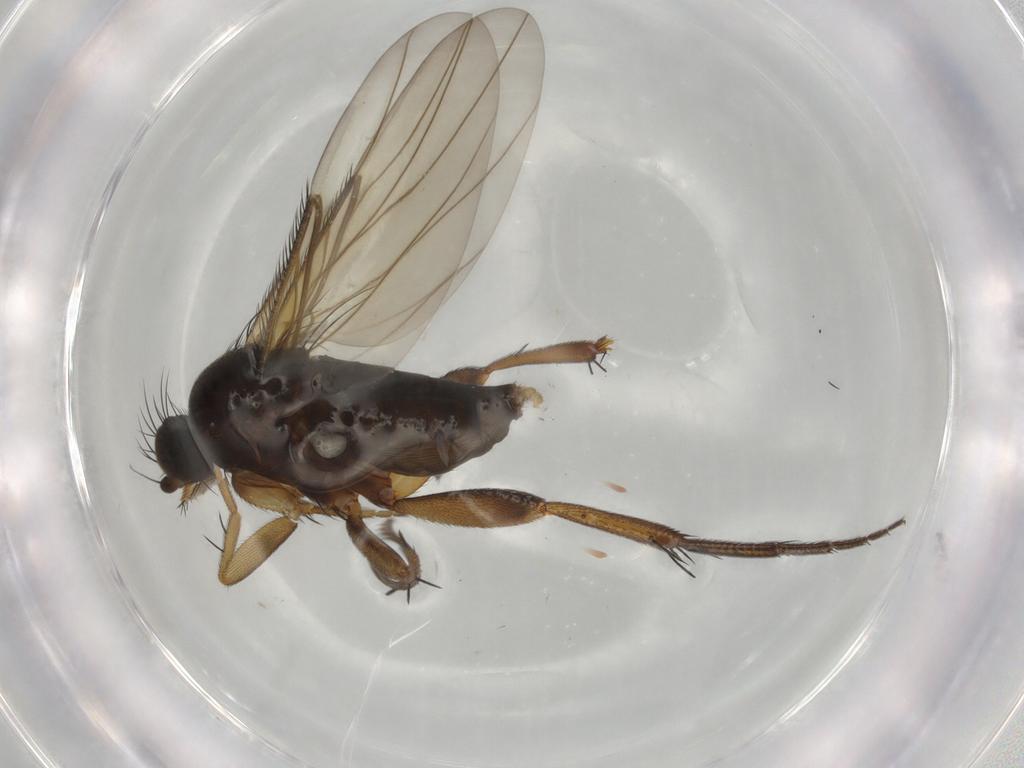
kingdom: Animalia
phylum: Arthropoda
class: Insecta
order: Diptera
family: Phoridae
